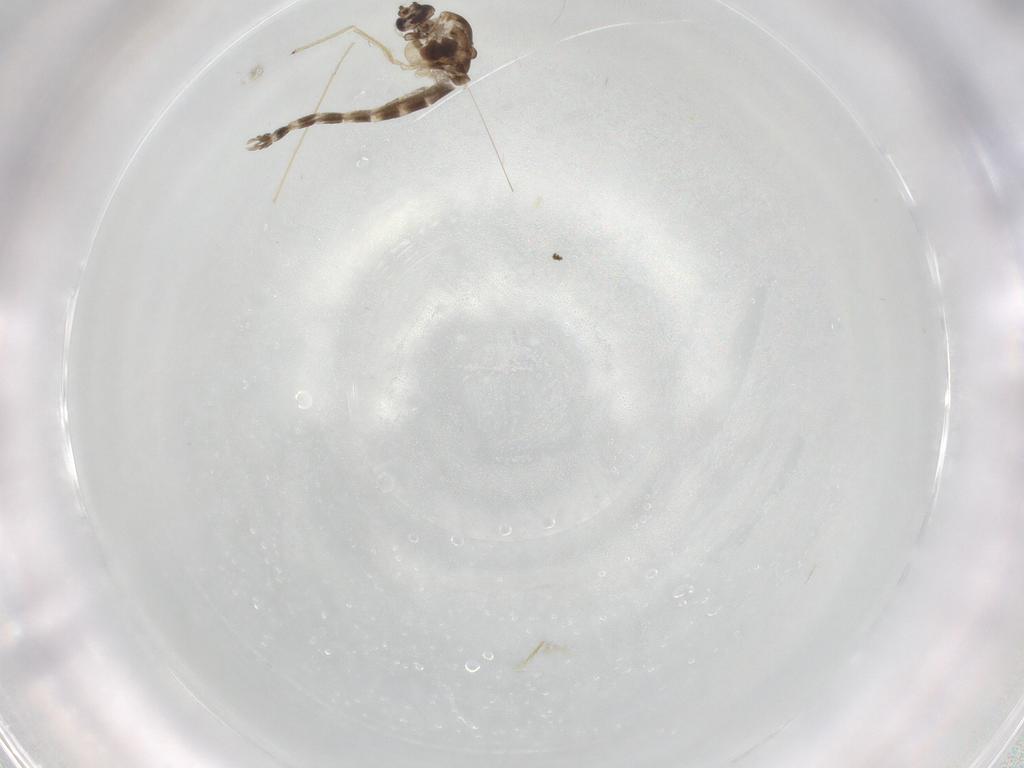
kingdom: Animalia
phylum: Arthropoda
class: Insecta
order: Diptera
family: Chironomidae
